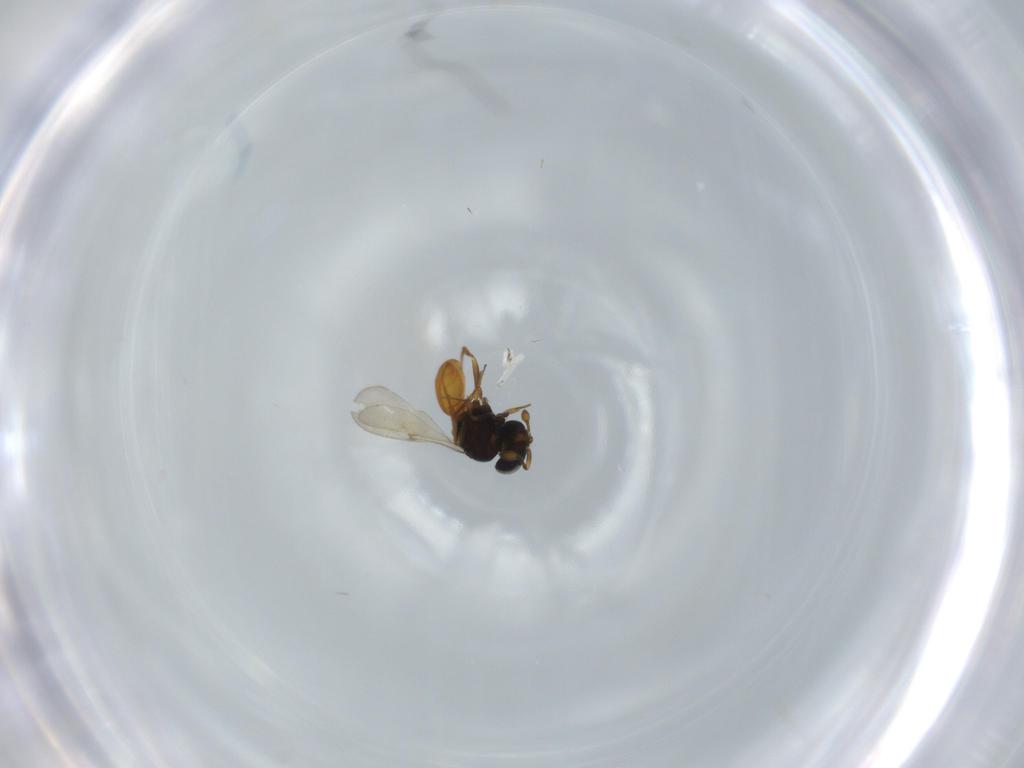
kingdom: Animalia
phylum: Arthropoda
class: Insecta
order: Hymenoptera
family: Scelionidae
